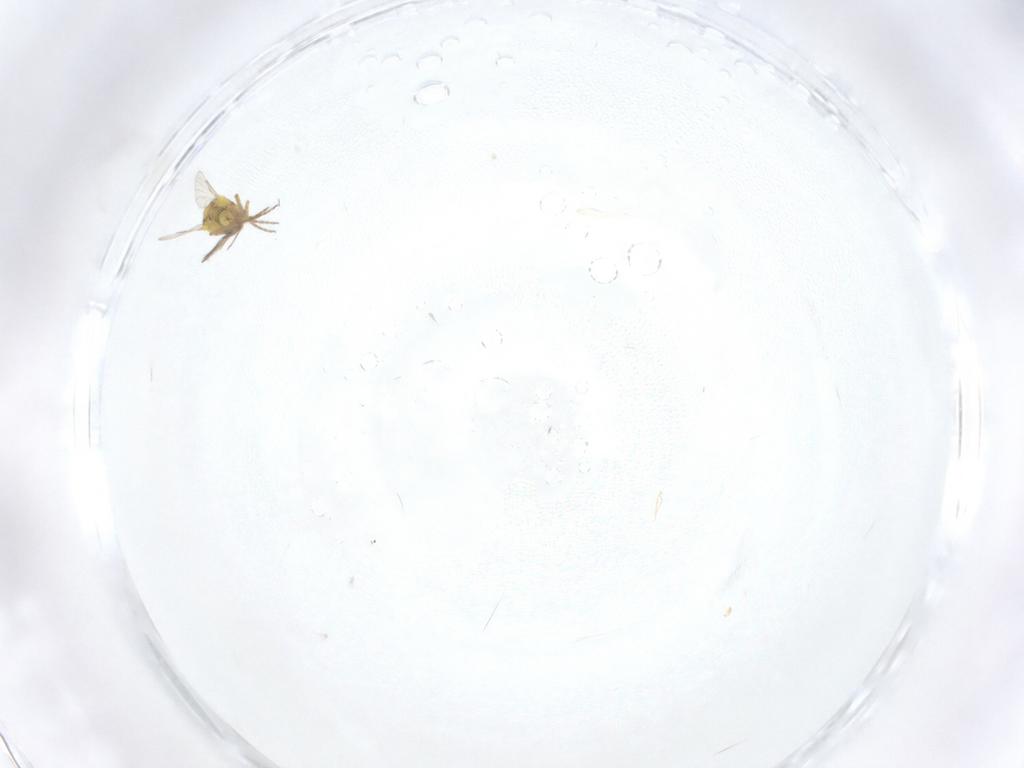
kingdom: Animalia
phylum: Arthropoda
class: Insecta
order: Diptera
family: Ceratopogonidae
